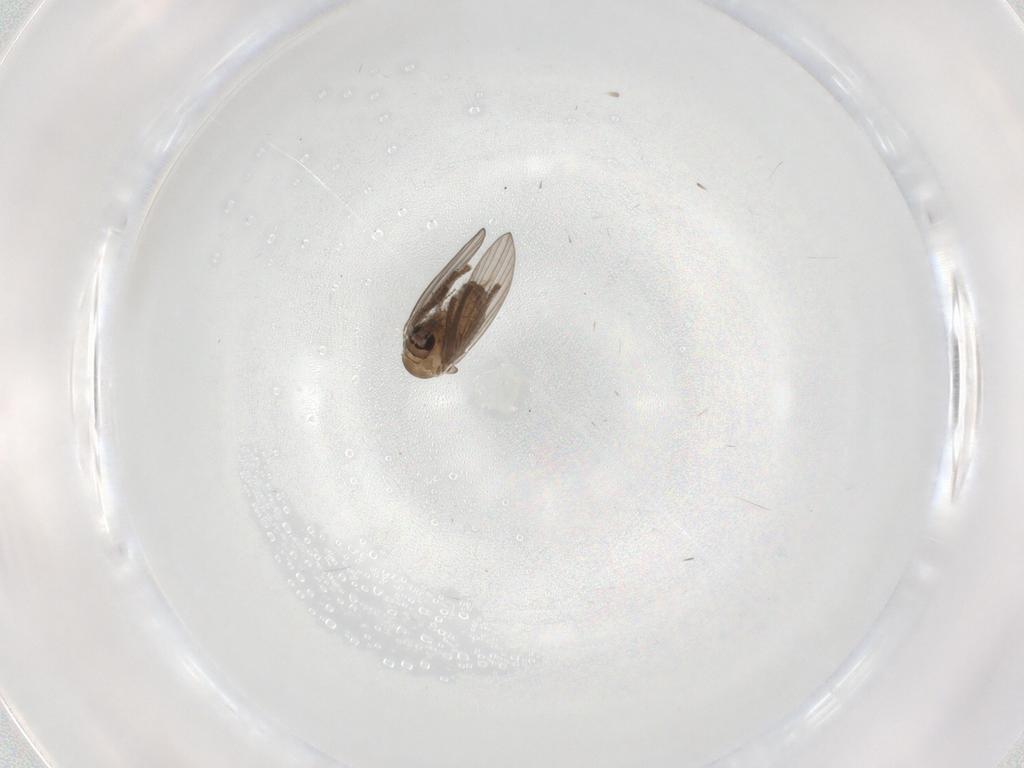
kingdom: Animalia
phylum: Arthropoda
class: Insecta
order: Diptera
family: Psychodidae
